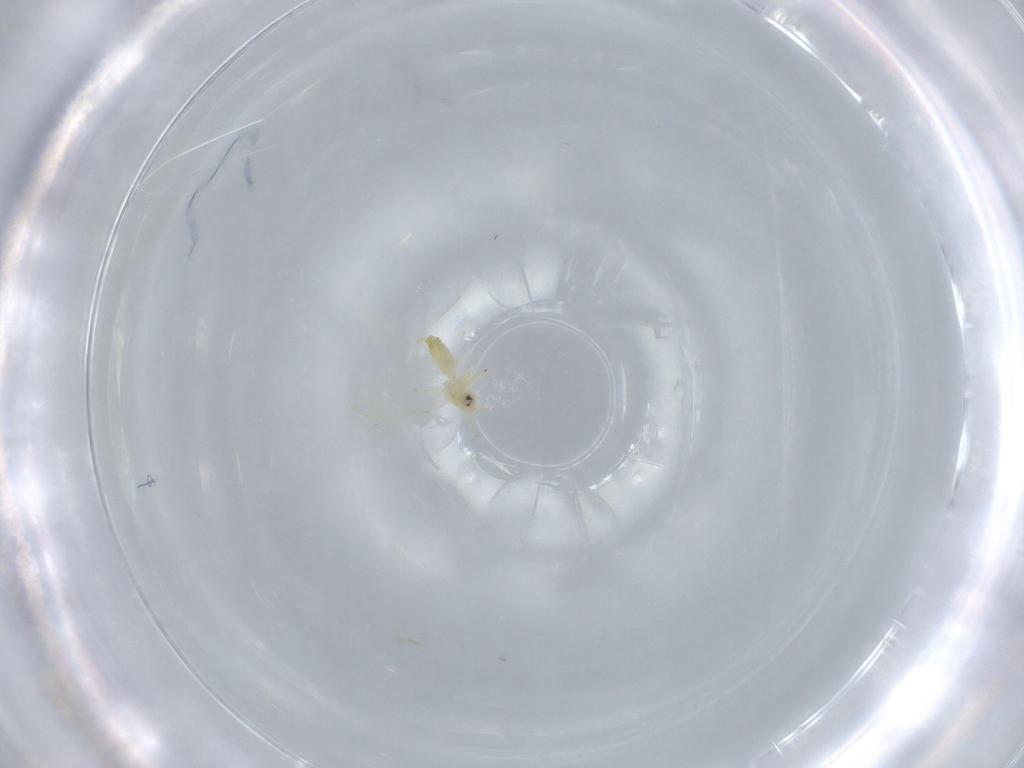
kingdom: Animalia
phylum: Arthropoda
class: Insecta
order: Hemiptera
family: Aleyrodidae
